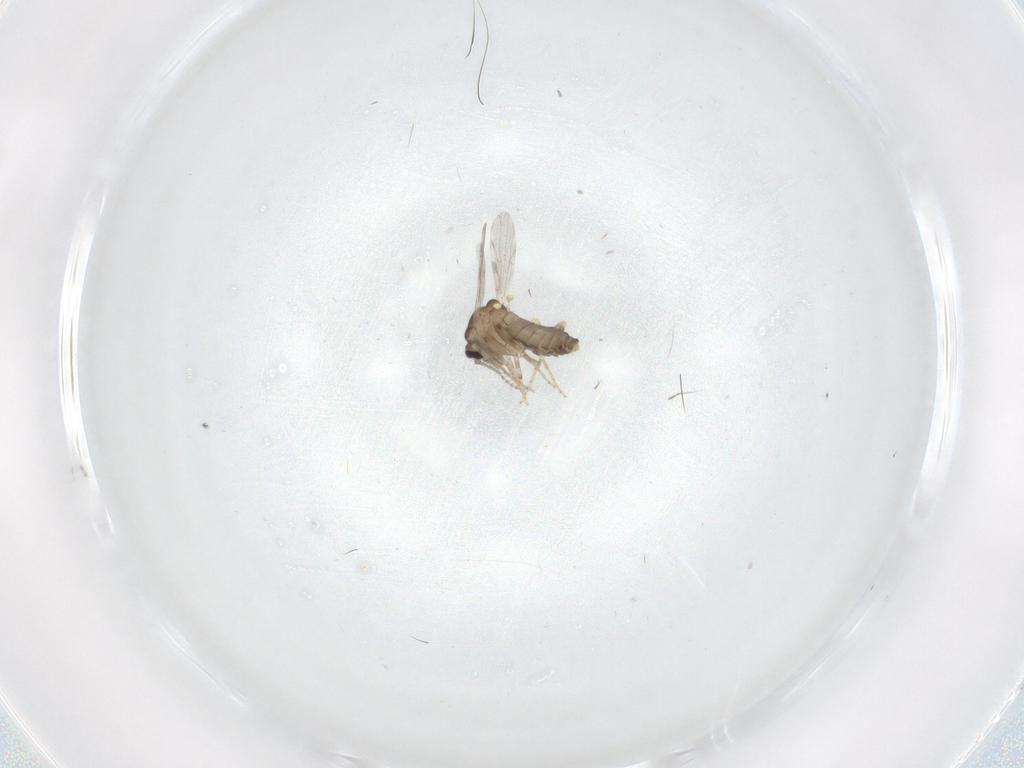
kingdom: Animalia
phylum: Arthropoda
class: Insecta
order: Diptera
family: Ceratopogonidae
